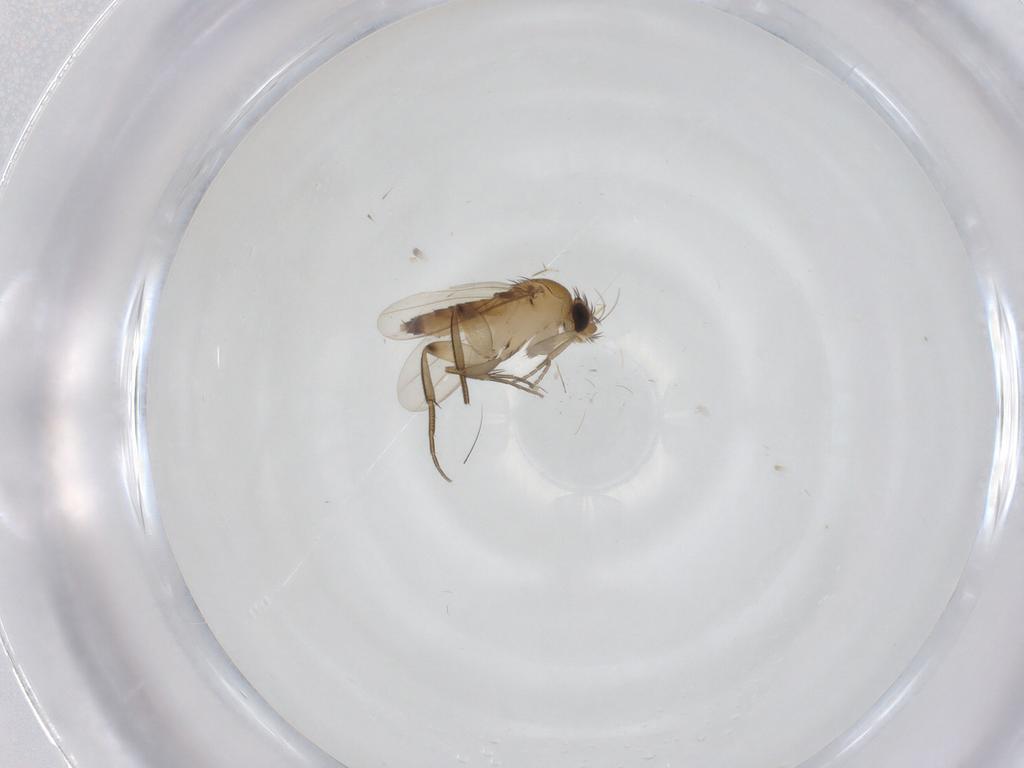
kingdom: Animalia
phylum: Arthropoda
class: Insecta
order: Diptera
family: Phoridae
